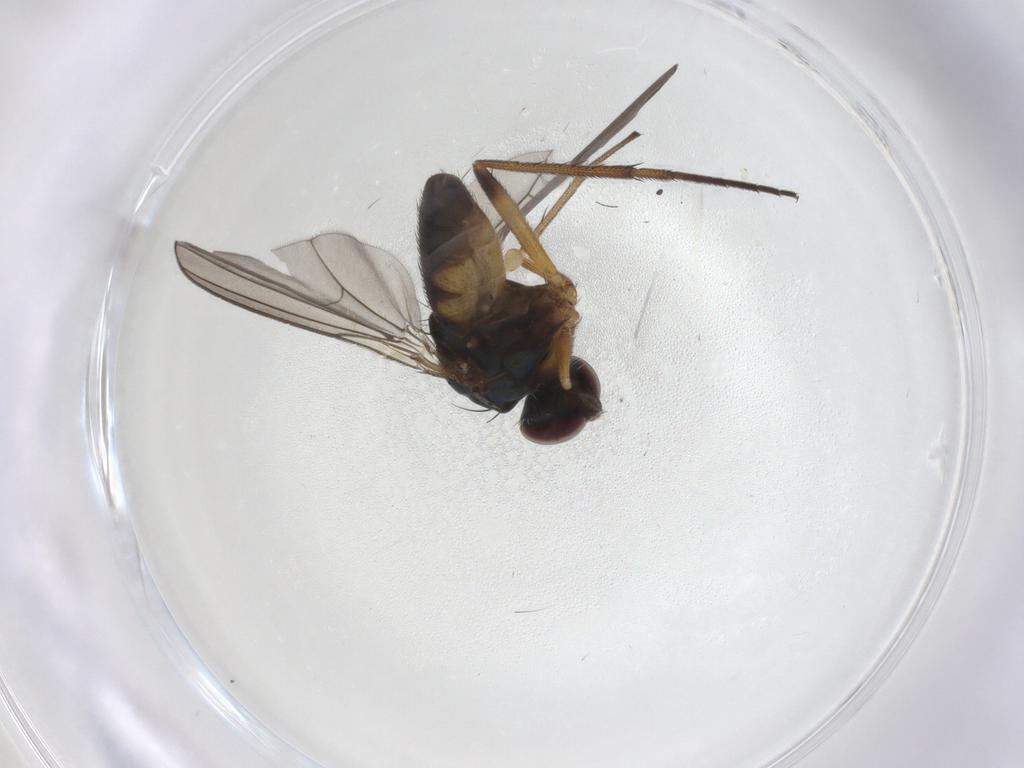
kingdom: Animalia
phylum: Arthropoda
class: Insecta
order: Diptera
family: Dolichopodidae
